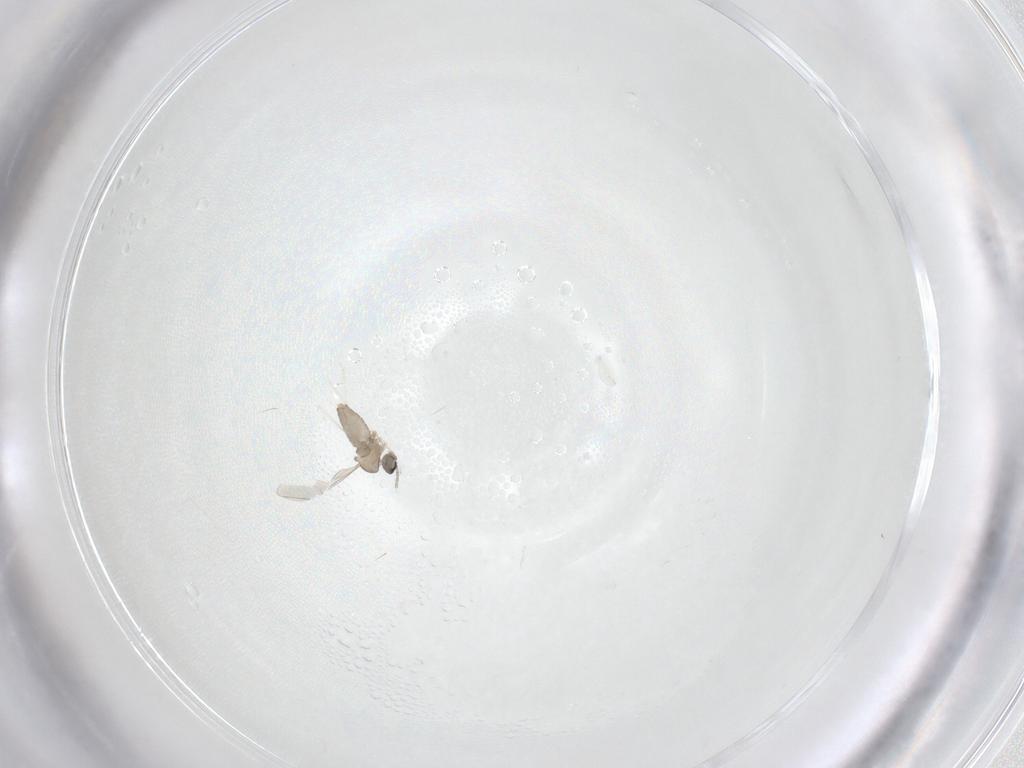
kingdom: Animalia
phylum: Arthropoda
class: Insecta
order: Diptera
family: Cecidomyiidae
